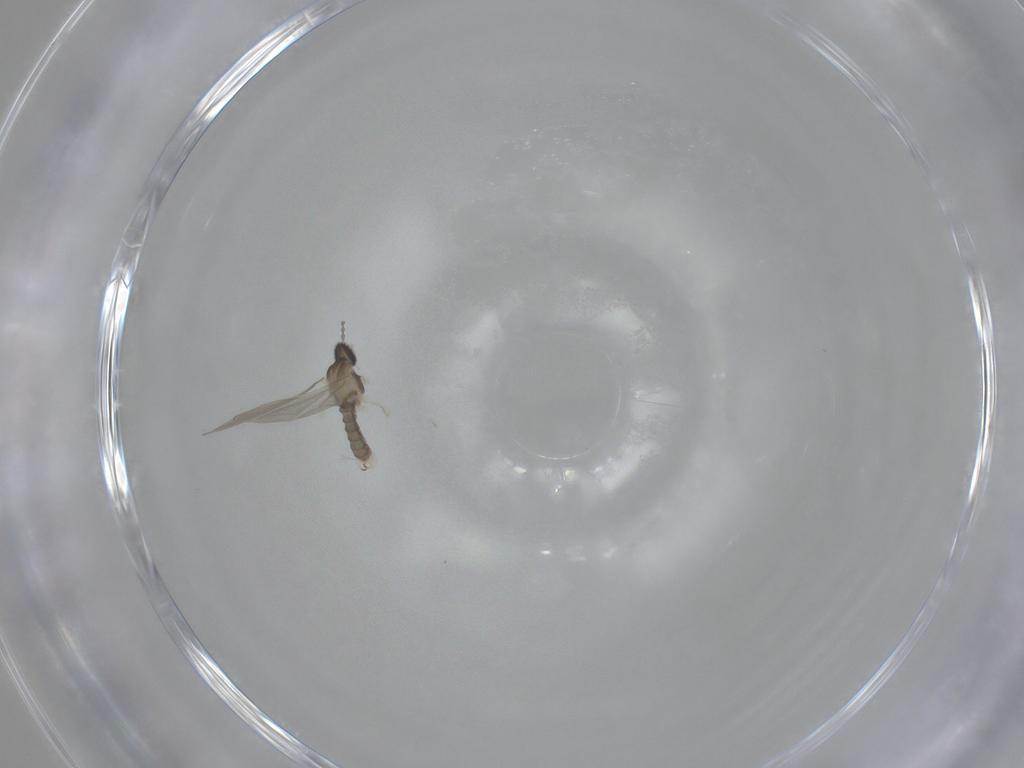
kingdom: Animalia
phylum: Arthropoda
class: Insecta
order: Diptera
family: Cecidomyiidae
